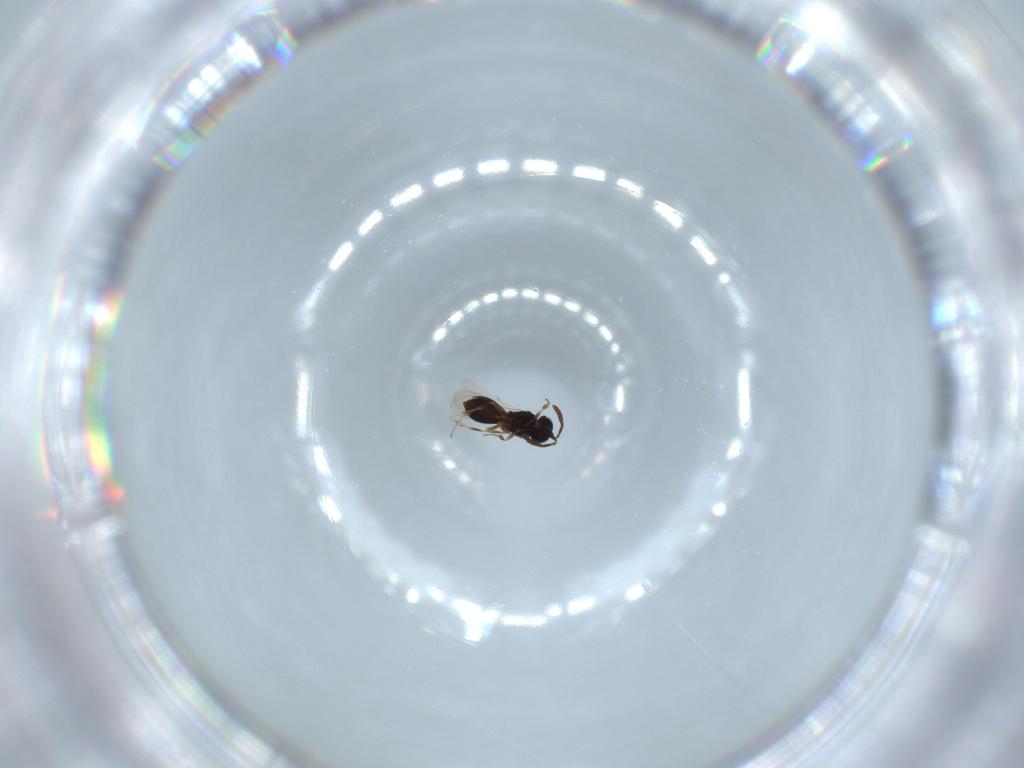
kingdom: Animalia
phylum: Arthropoda
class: Insecta
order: Hymenoptera
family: Scelionidae
